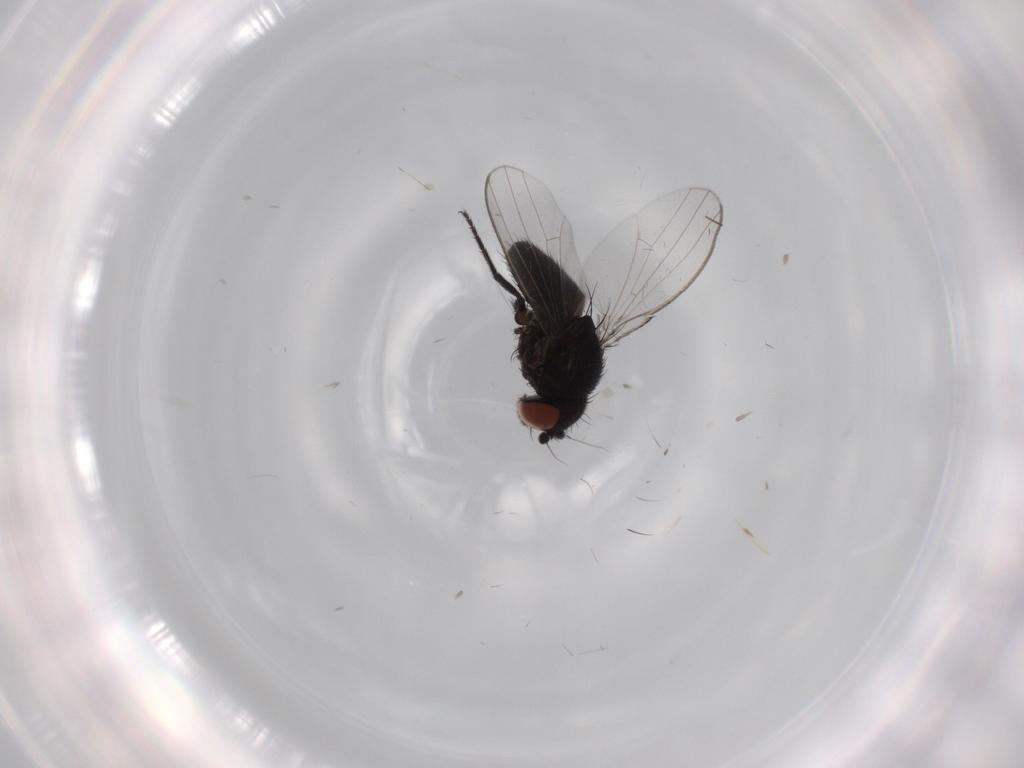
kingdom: Animalia
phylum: Arthropoda
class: Insecta
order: Diptera
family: Milichiidae
